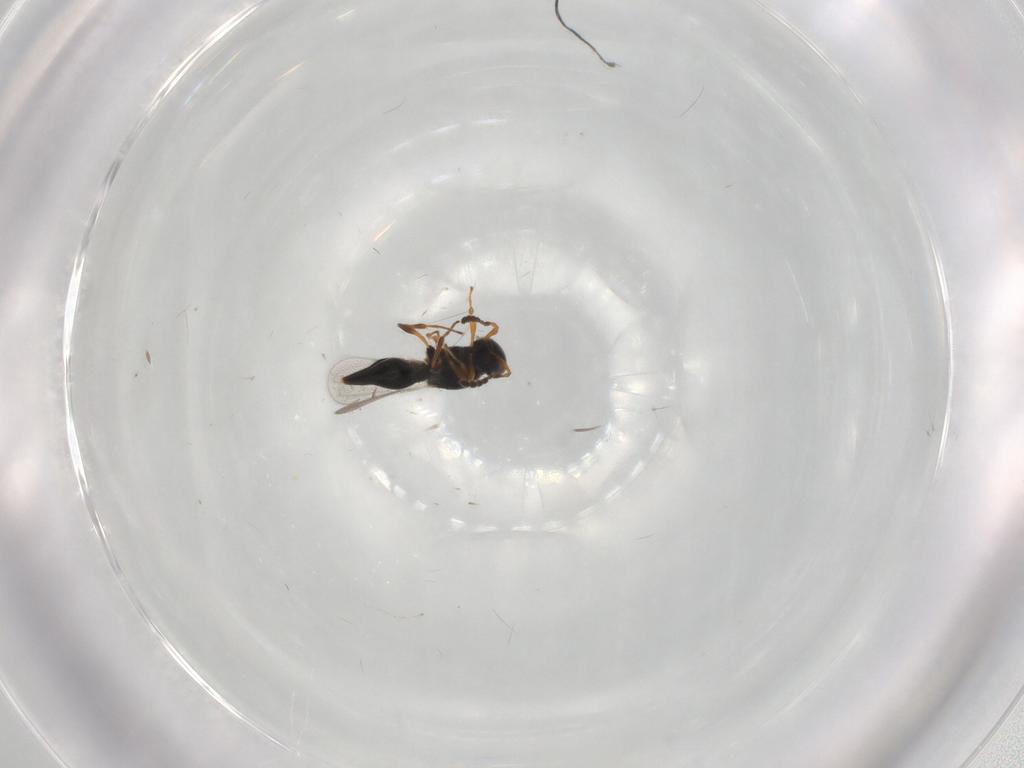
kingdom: Animalia
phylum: Arthropoda
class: Insecta
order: Hymenoptera
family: Platygastridae
